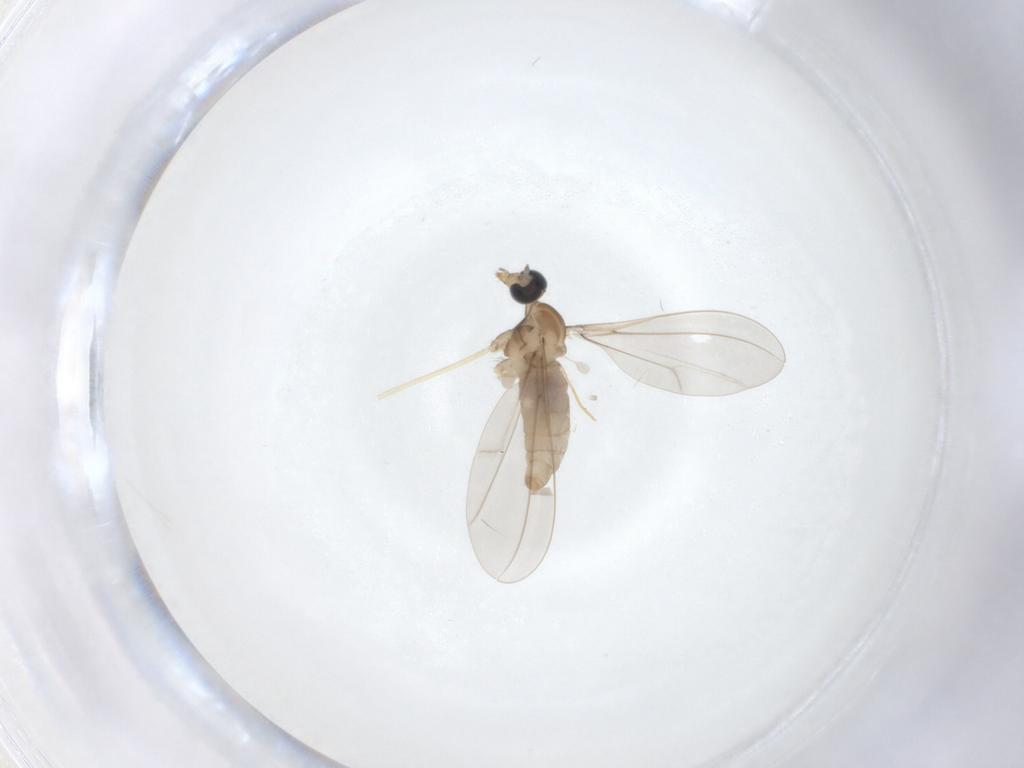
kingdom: Animalia
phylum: Arthropoda
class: Insecta
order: Diptera
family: Cecidomyiidae
